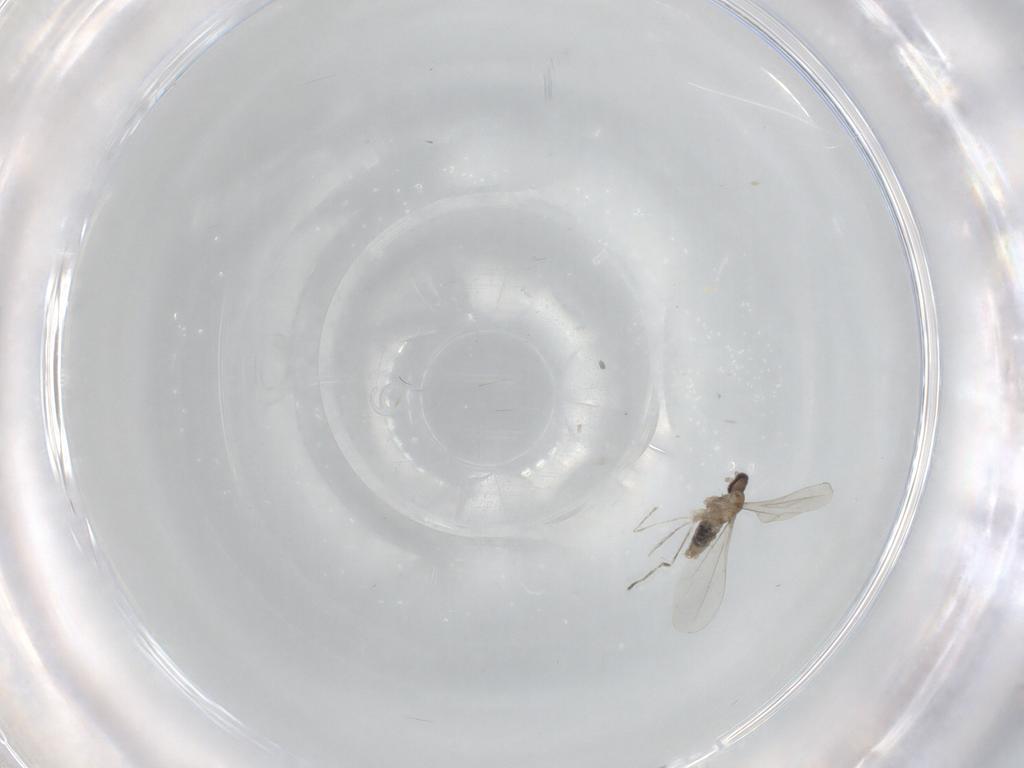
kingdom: Animalia
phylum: Arthropoda
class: Insecta
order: Diptera
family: Cecidomyiidae
